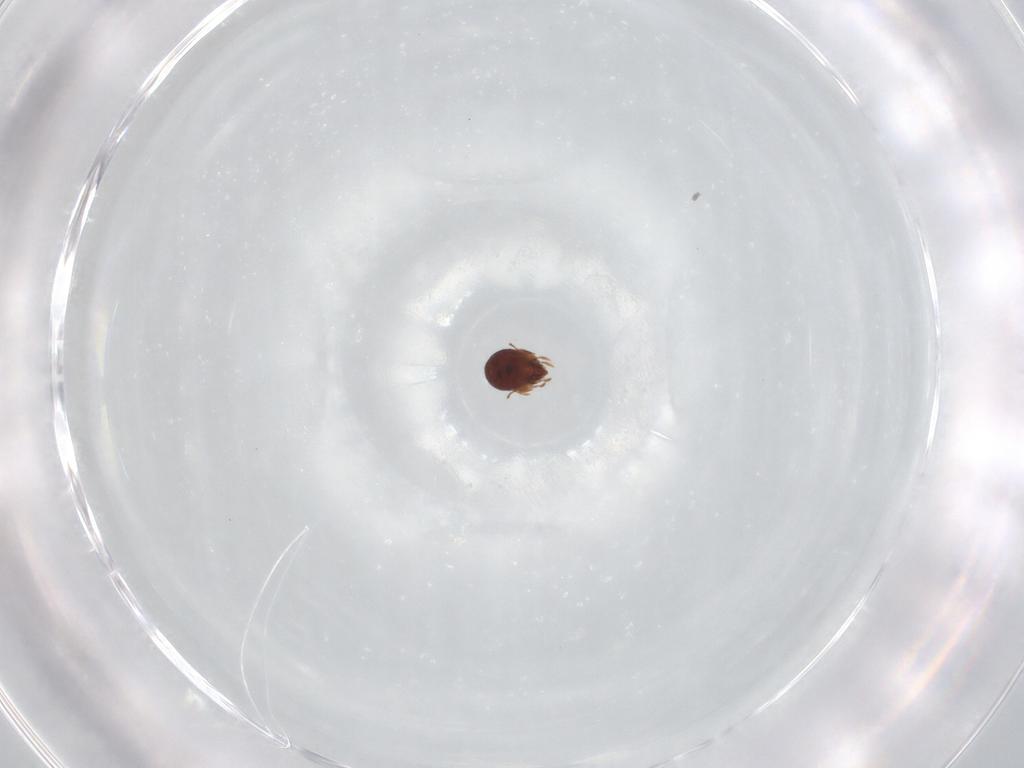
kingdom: Animalia
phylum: Arthropoda
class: Arachnida
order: Sarcoptiformes
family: Phenopelopidae
